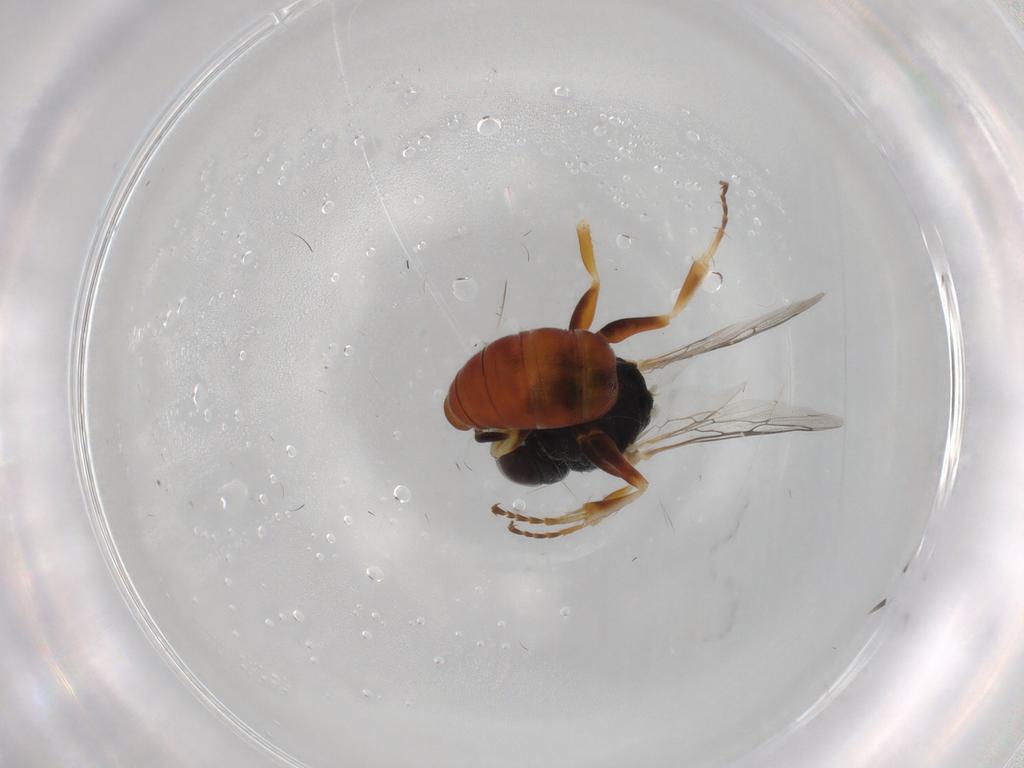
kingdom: Animalia
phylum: Arthropoda
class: Insecta
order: Hymenoptera
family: Crabronidae
